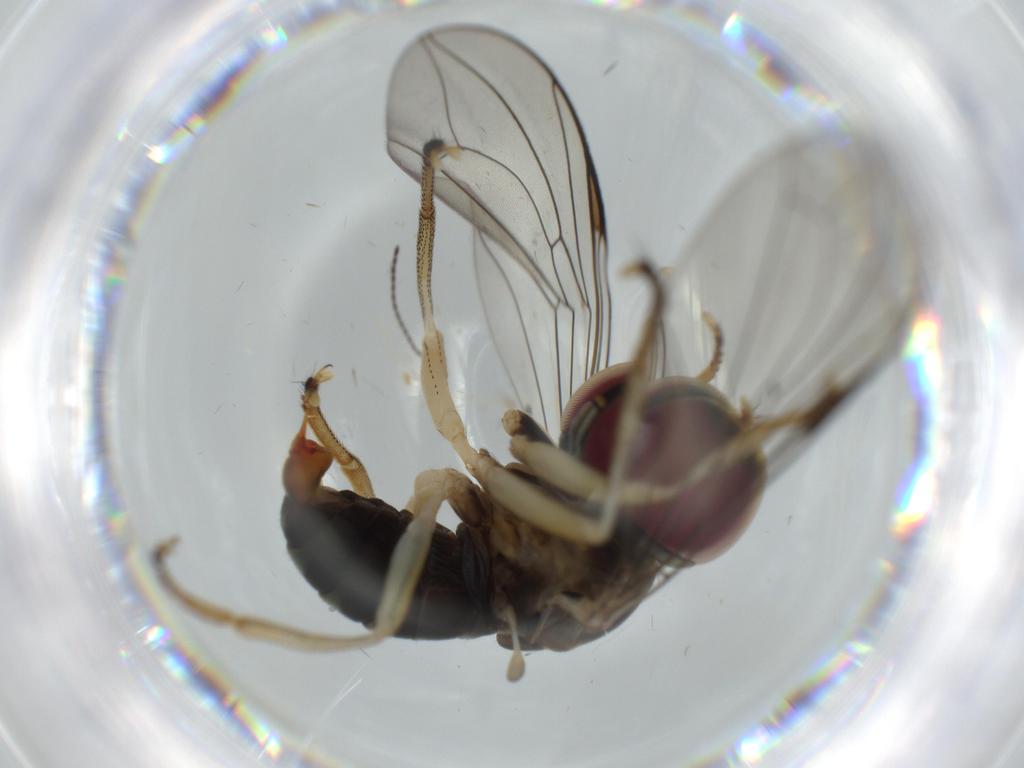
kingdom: Animalia
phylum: Arthropoda
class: Insecta
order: Diptera
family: Pipunculidae
